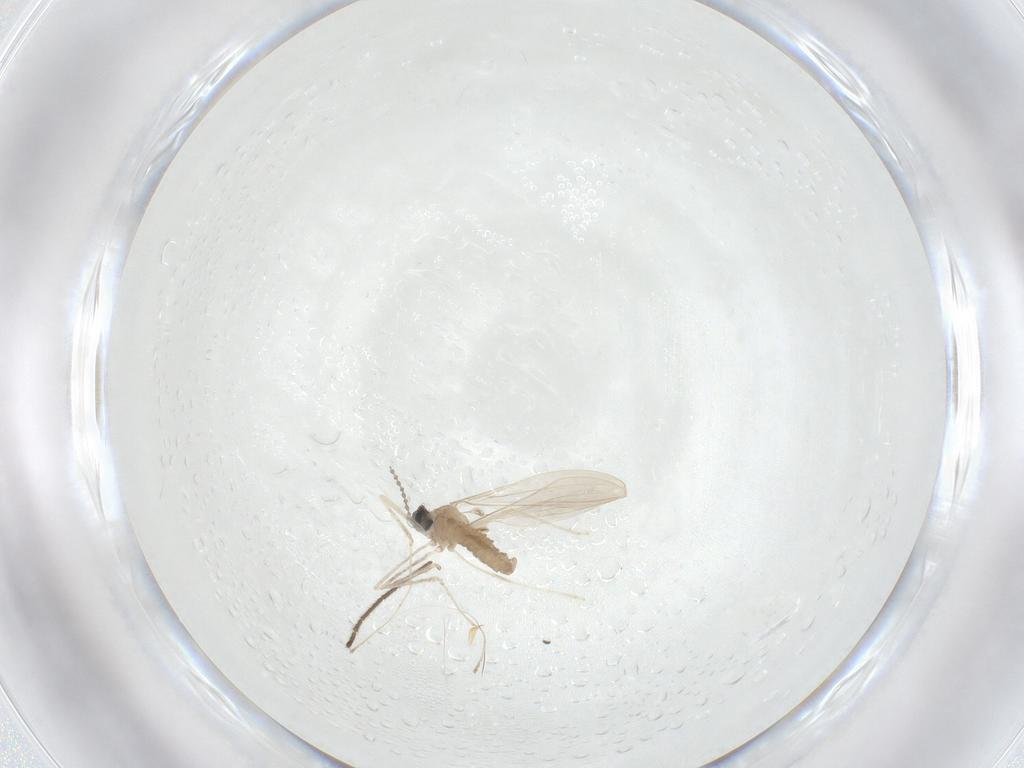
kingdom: Animalia
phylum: Arthropoda
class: Insecta
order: Diptera
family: Limoniidae
